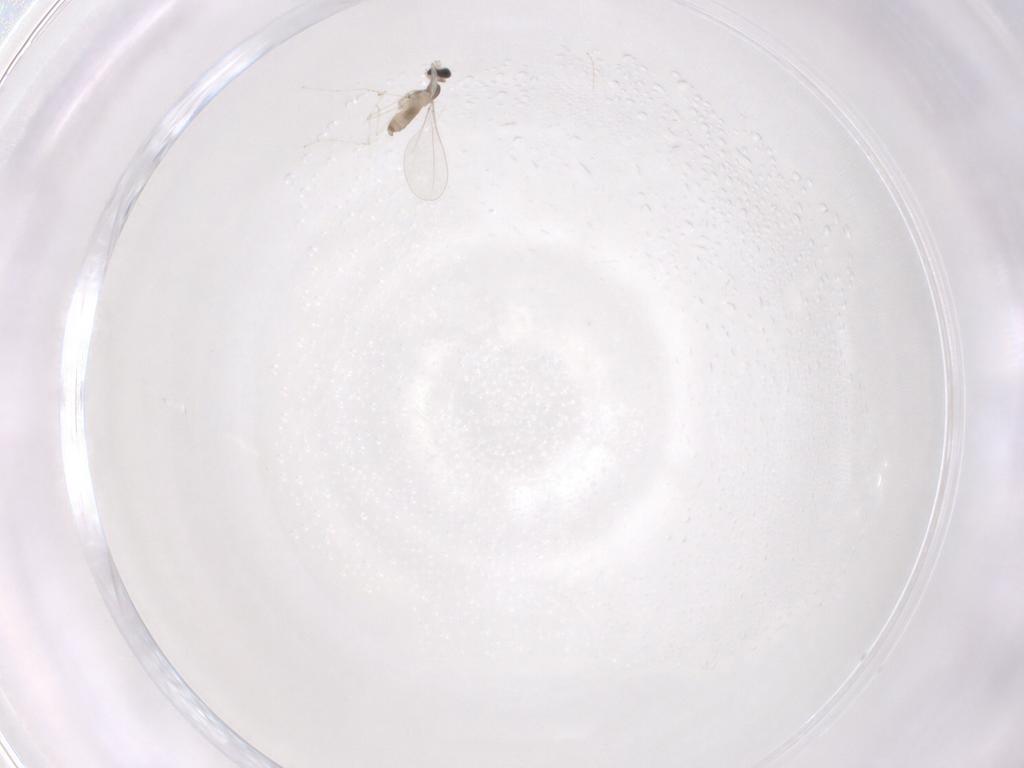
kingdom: Animalia
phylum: Arthropoda
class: Insecta
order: Diptera
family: Cecidomyiidae
